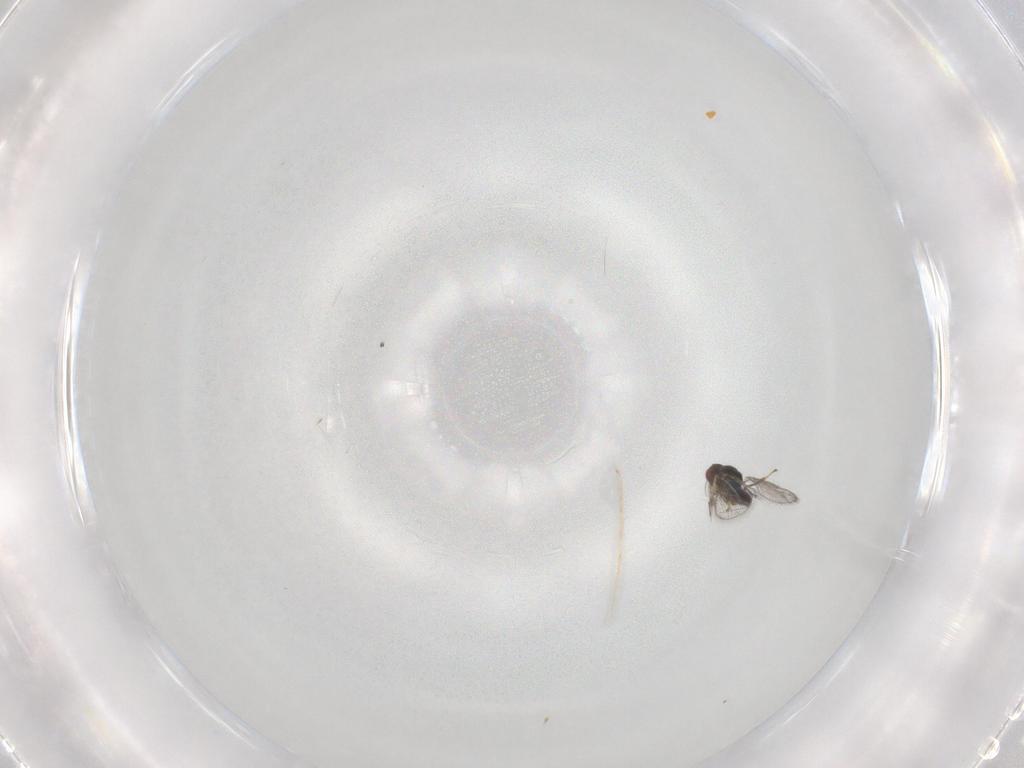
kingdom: Animalia
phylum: Arthropoda
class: Insecta
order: Hymenoptera
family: Eulophidae
